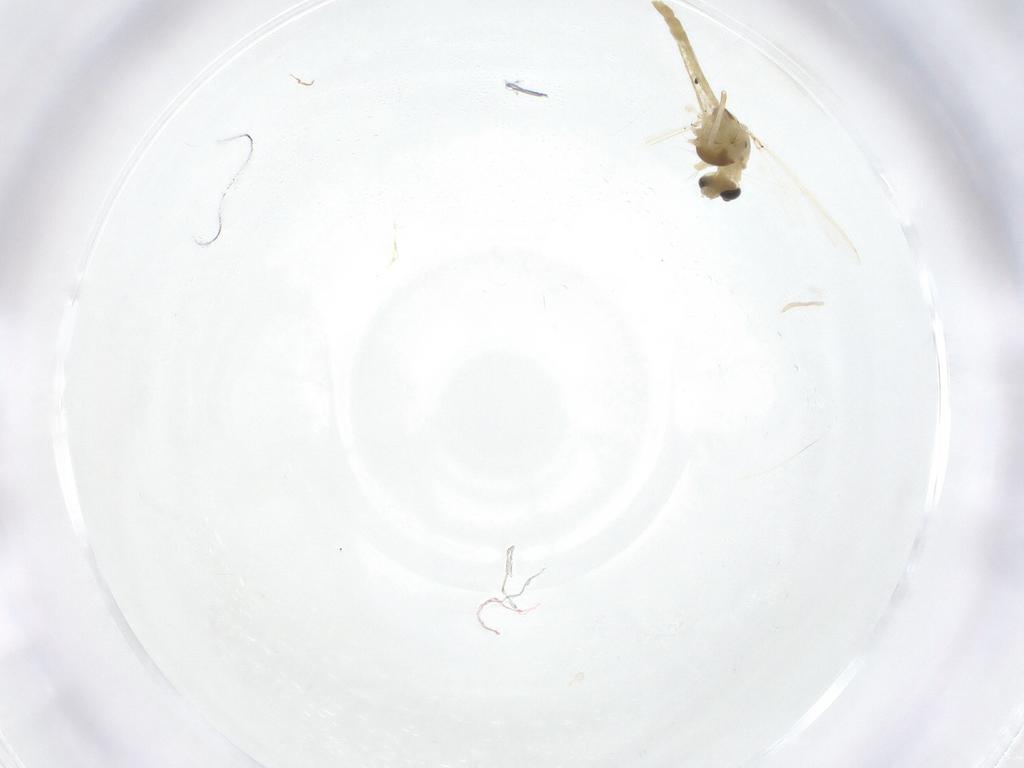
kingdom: Animalia
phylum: Arthropoda
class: Insecta
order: Diptera
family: Chironomidae
